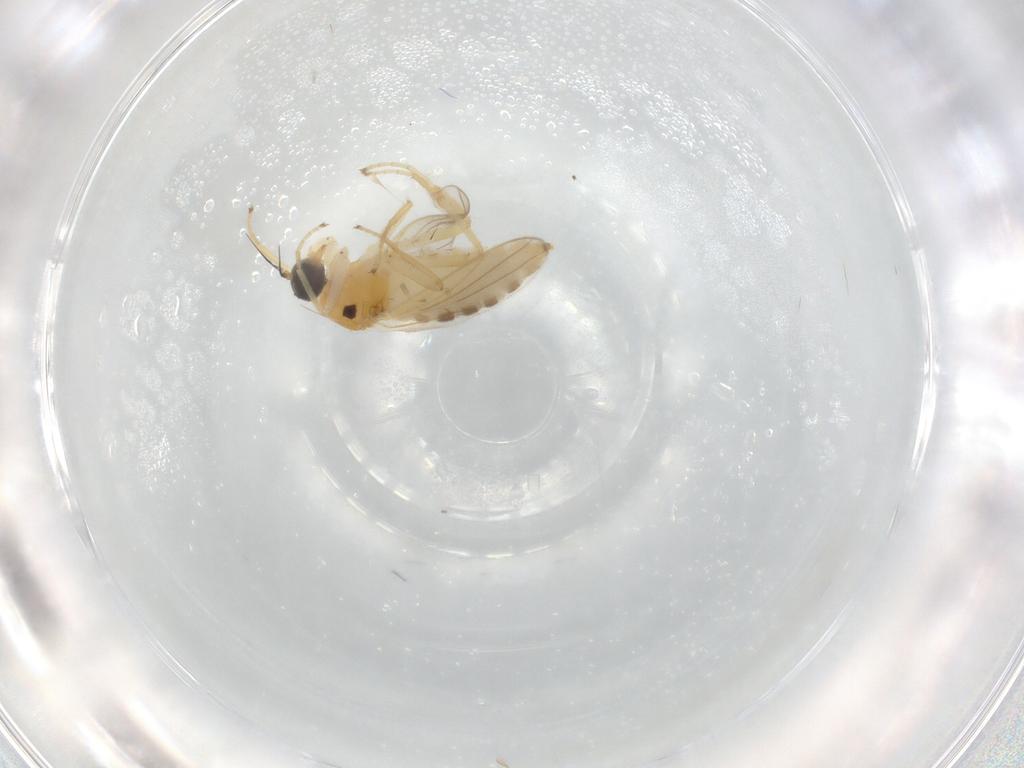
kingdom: Animalia
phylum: Arthropoda
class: Insecta
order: Diptera
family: Hybotidae
